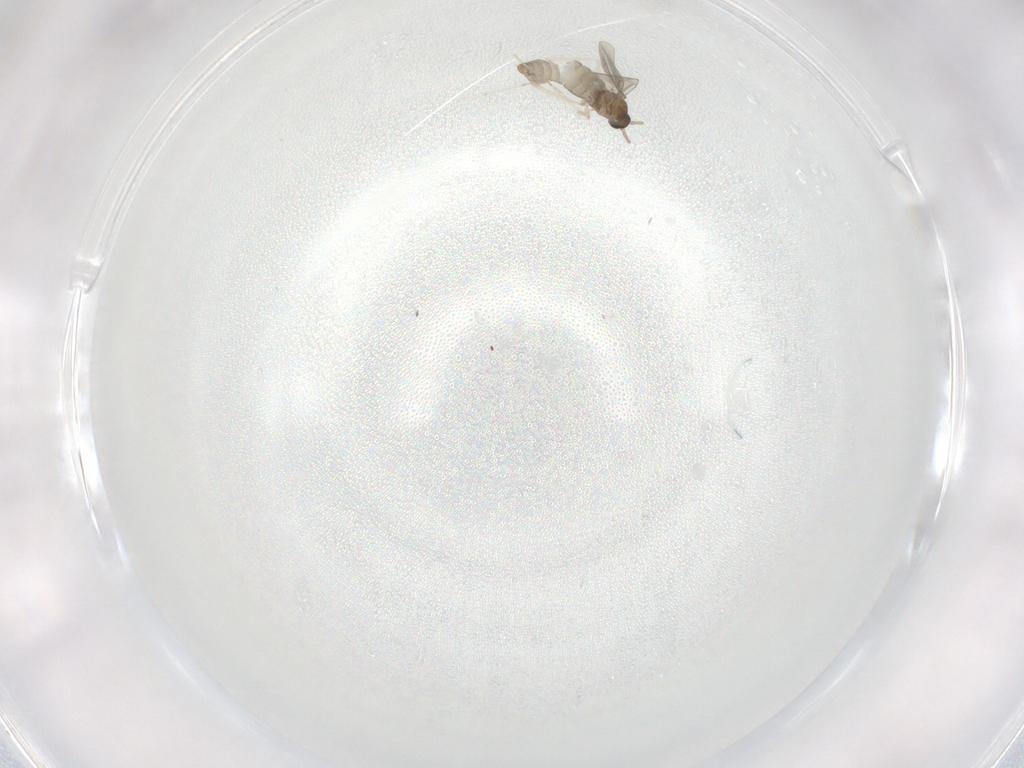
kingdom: Animalia
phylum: Arthropoda
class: Insecta
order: Diptera
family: Cecidomyiidae
